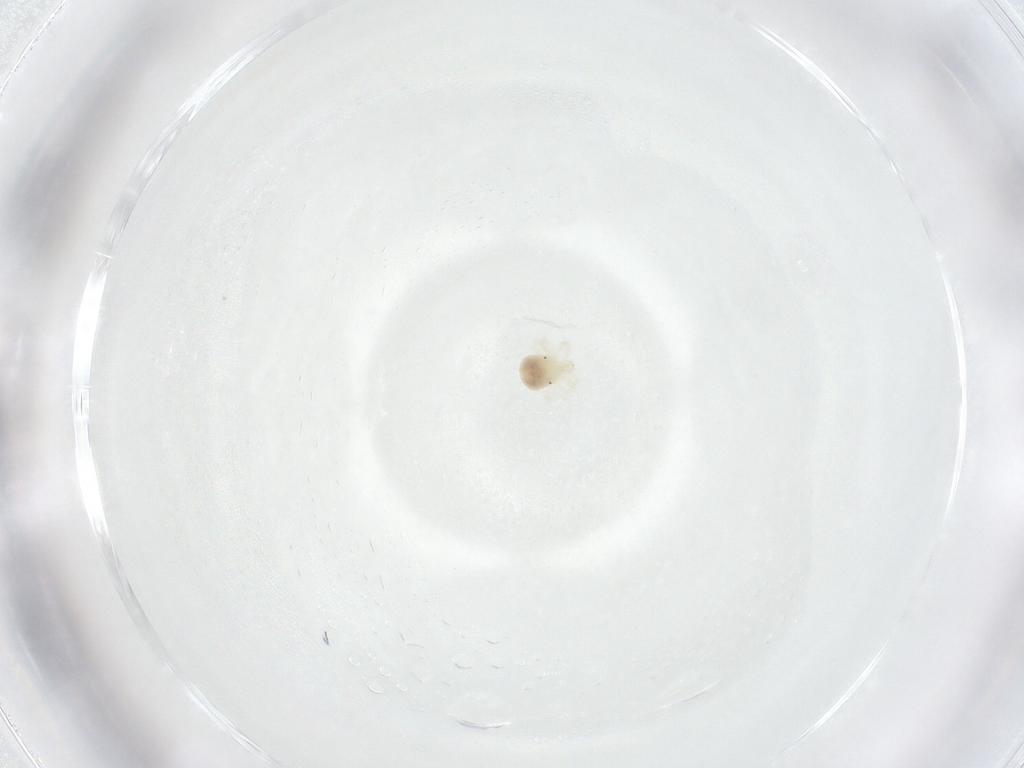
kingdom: Animalia
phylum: Arthropoda
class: Arachnida
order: Trombidiformes
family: Anystidae
